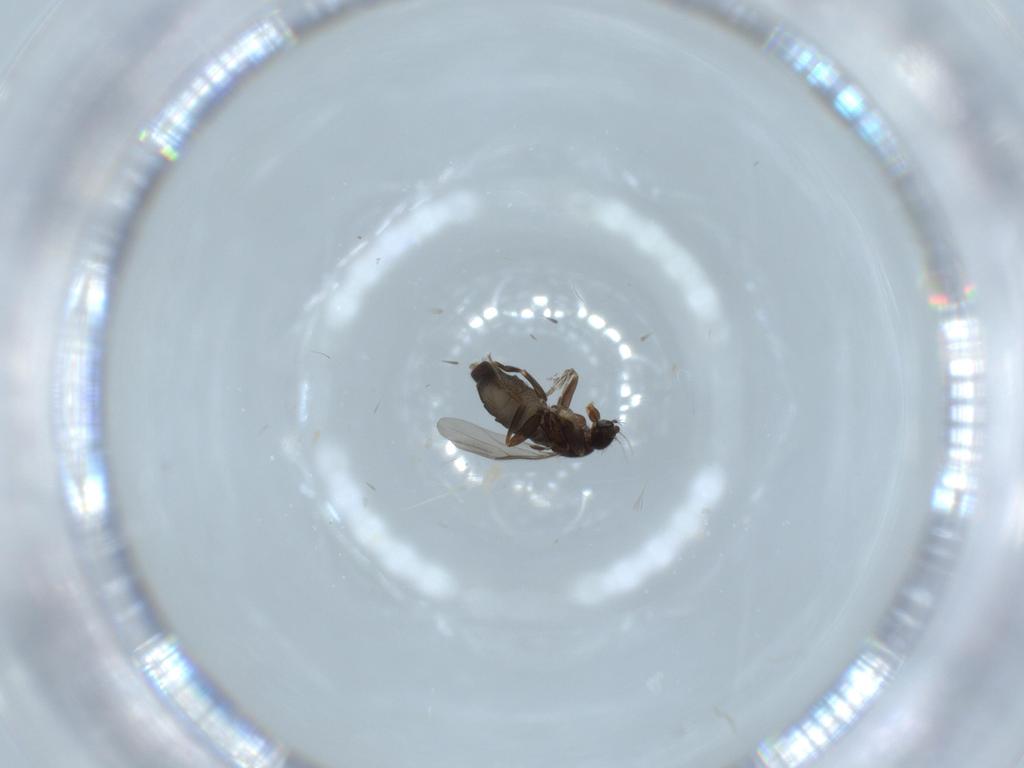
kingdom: Animalia
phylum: Arthropoda
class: Insecta
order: Diptera
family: Phoridae
